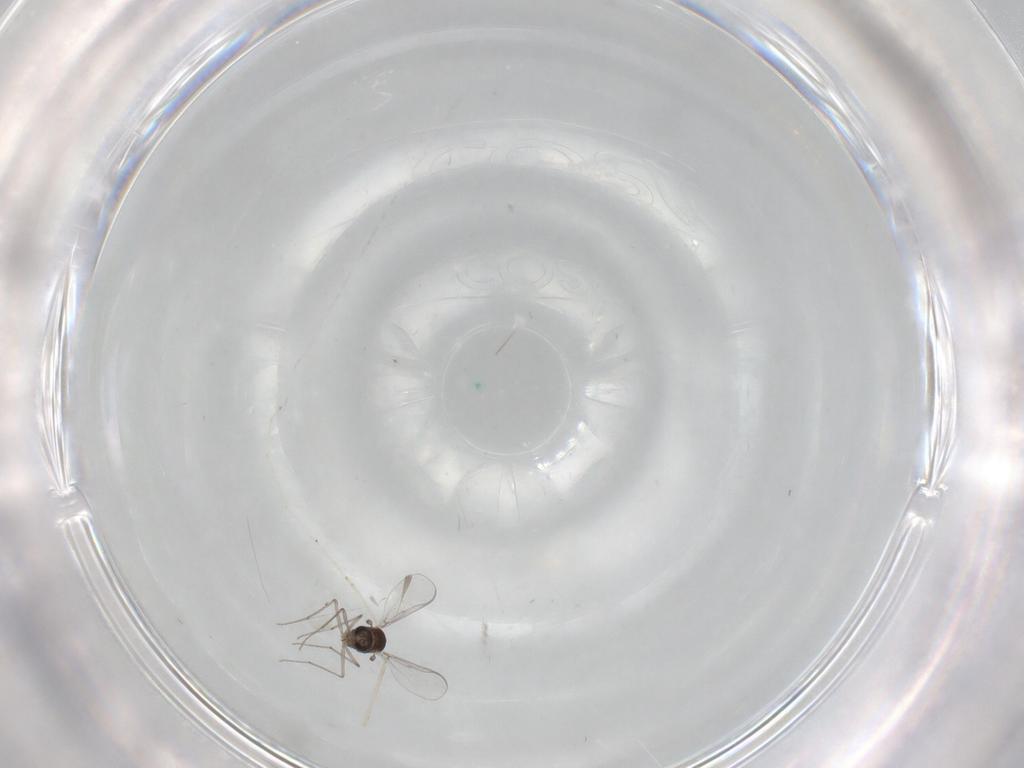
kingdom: Animalia
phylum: Arthropoda
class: Insecta
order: Diptera
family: Chironomidae
